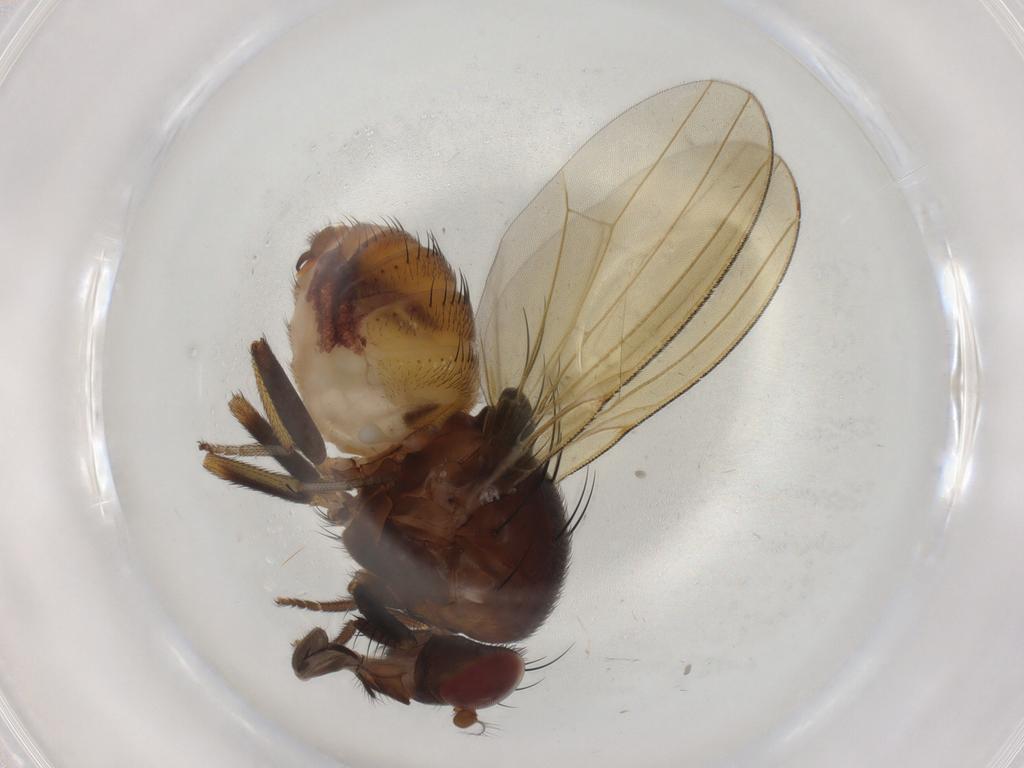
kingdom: Animalia
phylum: Arthropoda
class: Insecta
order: Diptera
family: Lauxaniidae
